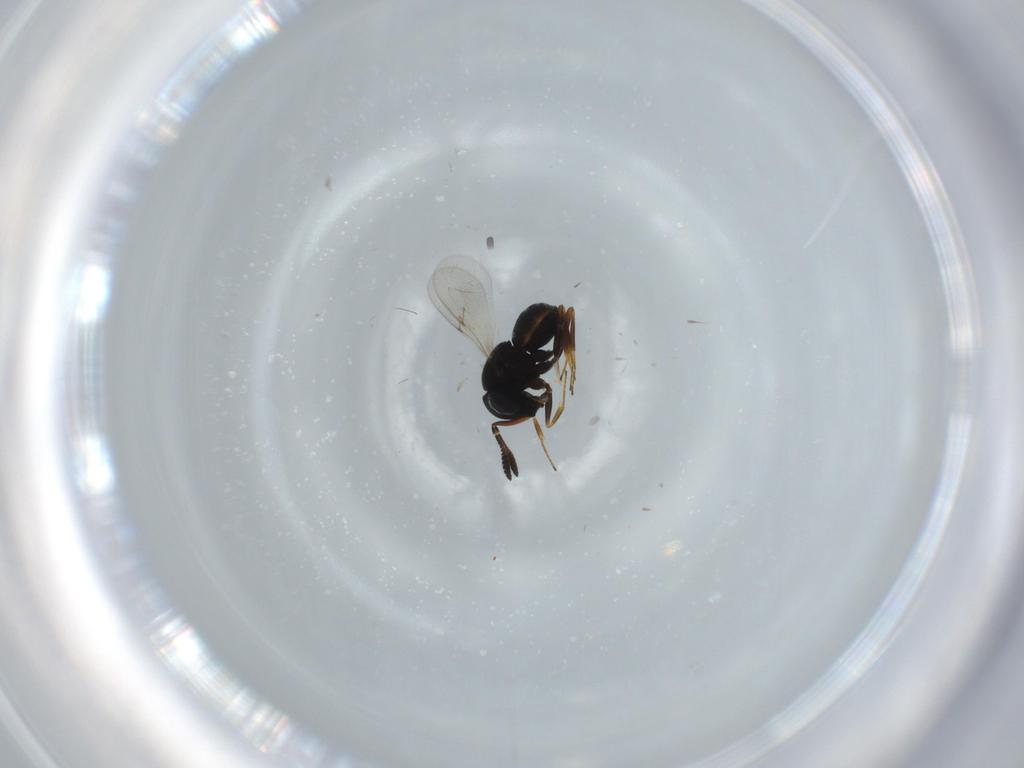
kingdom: Animalia
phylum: Arthropoda
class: Insecta
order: Hymenoptera
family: Scelionidae
